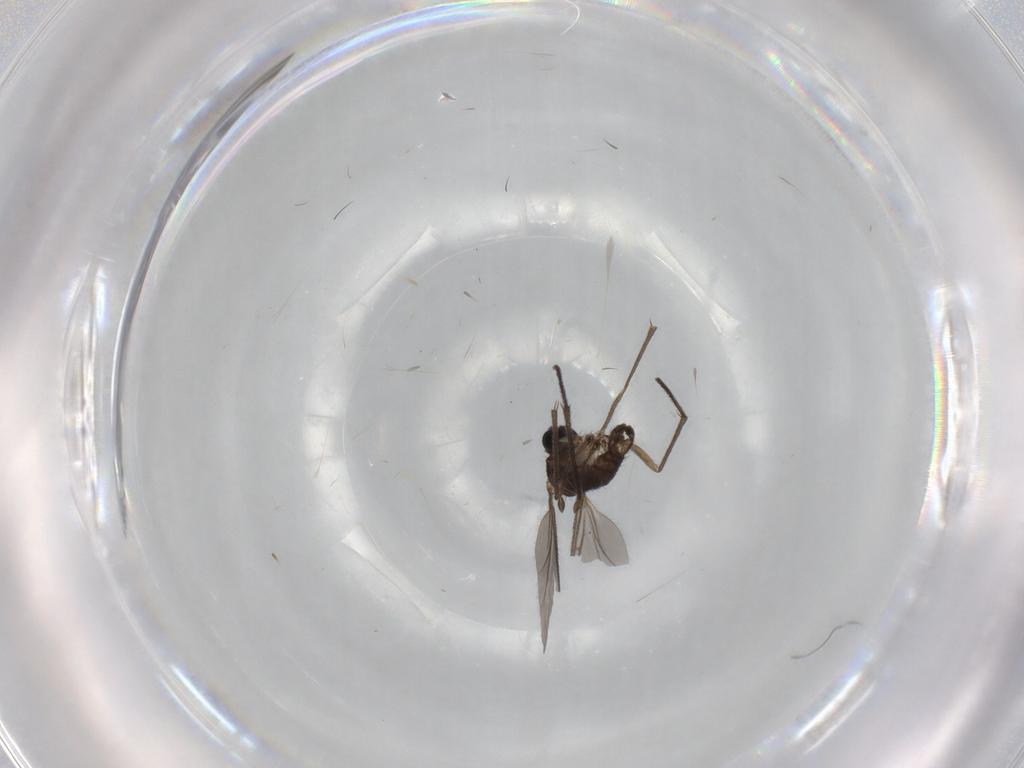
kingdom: Animalia
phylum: Arthropoda
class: Insecta
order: Diptera
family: Sciaridae
